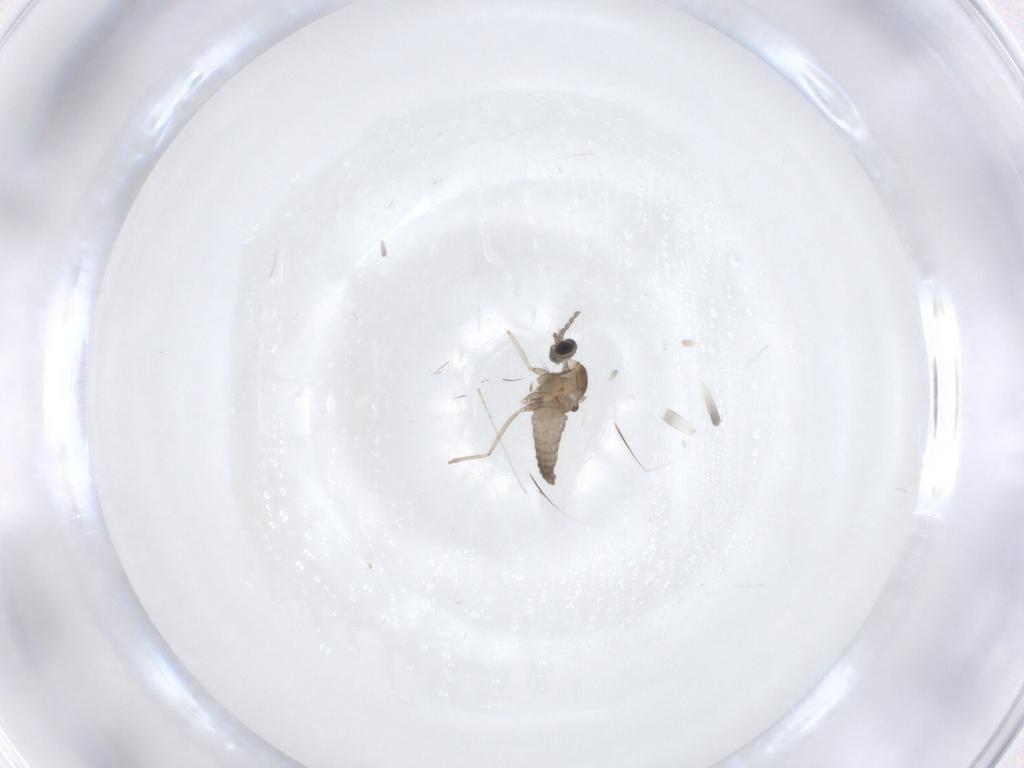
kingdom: Animalia
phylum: Arthropoda
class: Insecta
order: Diptera
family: Cecidomyiidae
